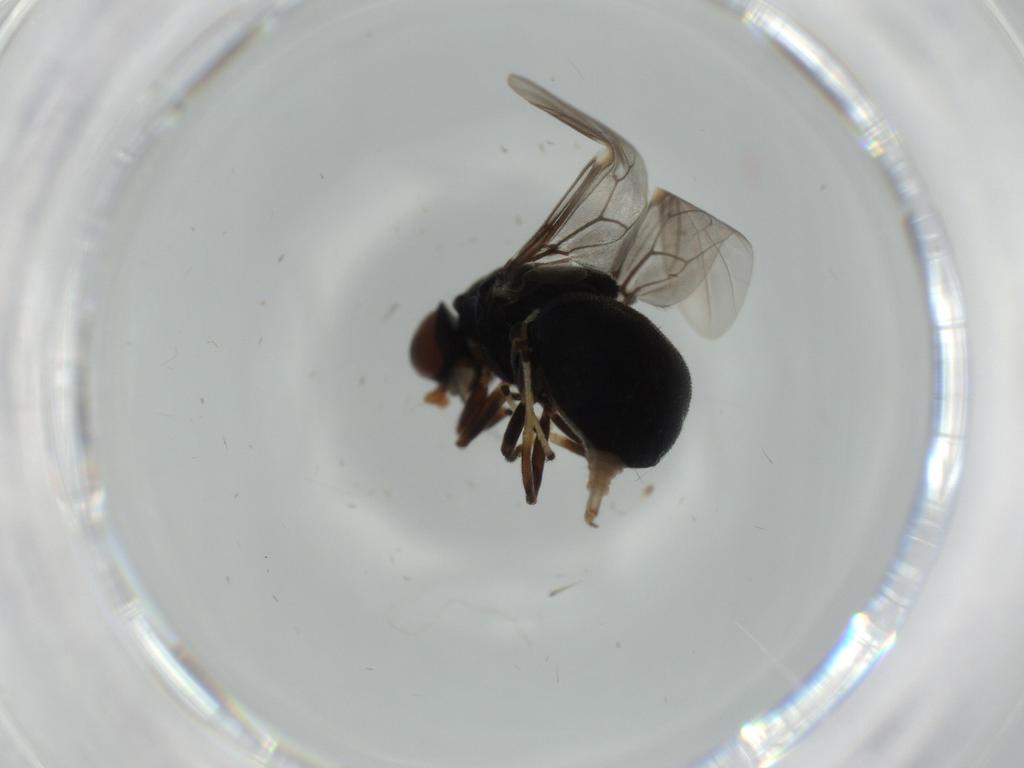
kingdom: Animalia
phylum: Arthropoda
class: Insecta
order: Diptera
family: Stratiomyidae
